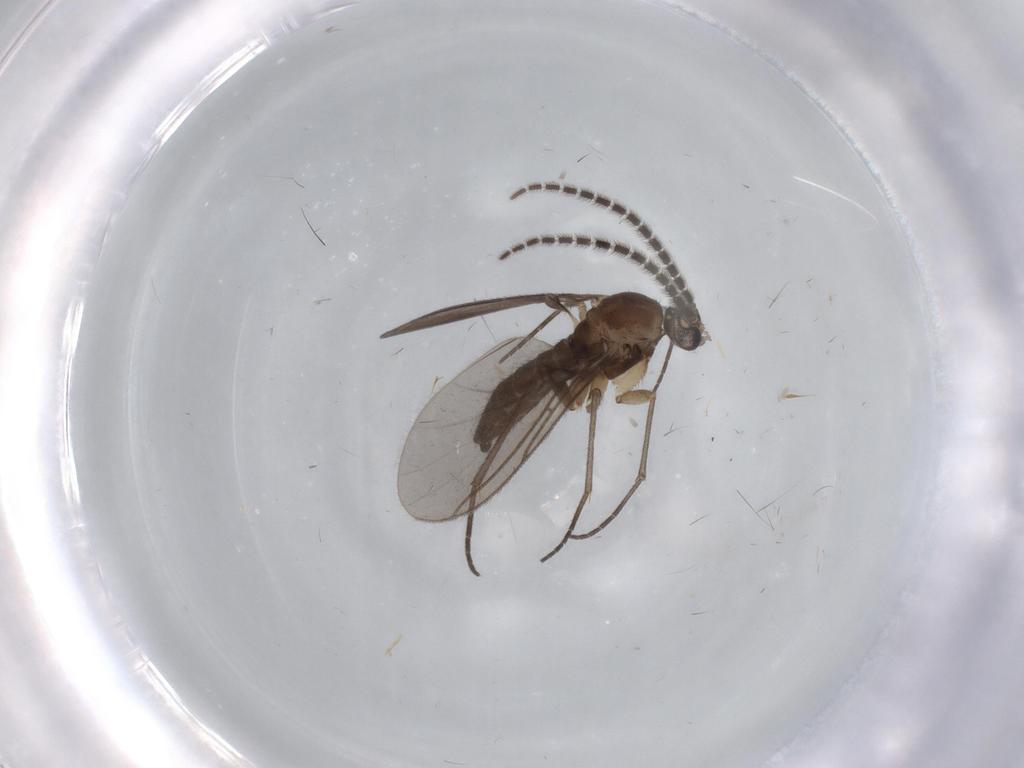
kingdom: Animalia
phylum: Arthropoda
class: Insecta
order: Diptera
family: Sciaridae
